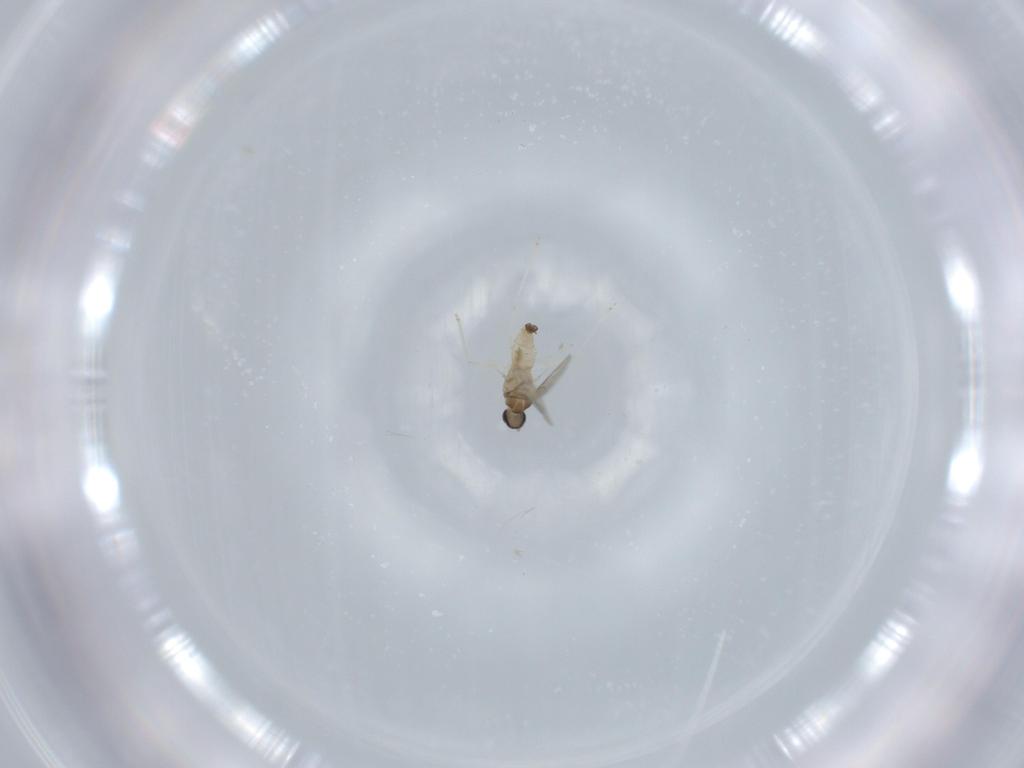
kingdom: Animalia
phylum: Arthropoda
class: Insecta
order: Diptera
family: Cecidomyiidae
